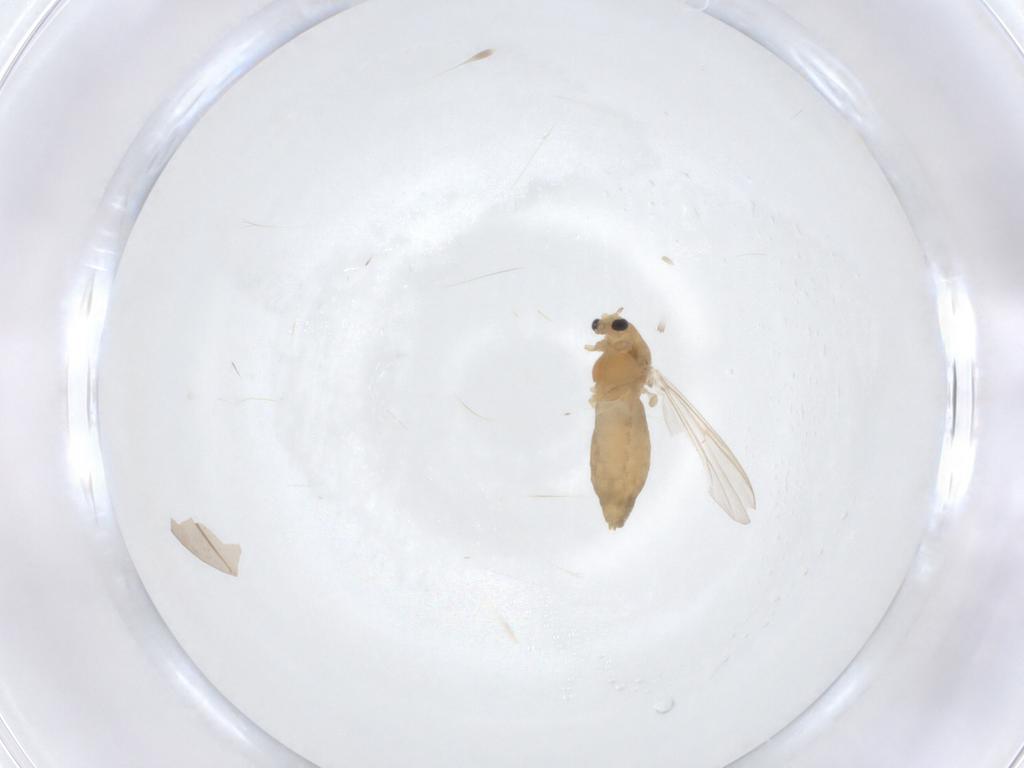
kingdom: Animalia
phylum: Arthropoda
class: Insecta
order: Diptera
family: Chironomidae
